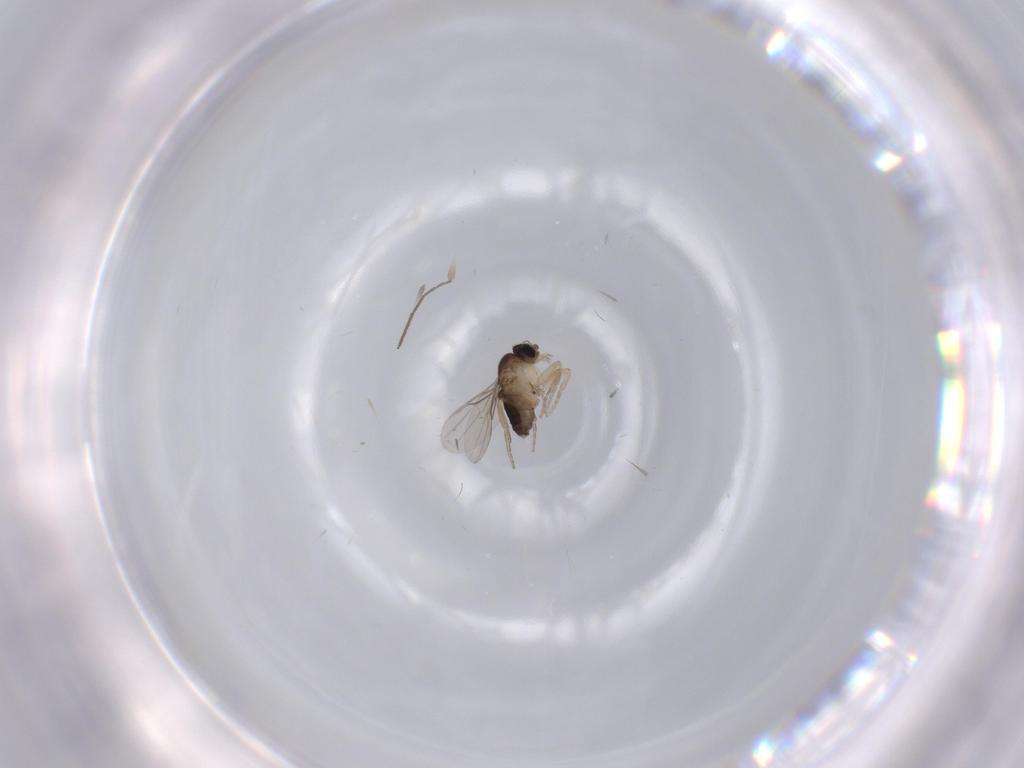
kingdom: Animalia
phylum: Arthropoda
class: Insecta
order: Diptera
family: Phoridae
